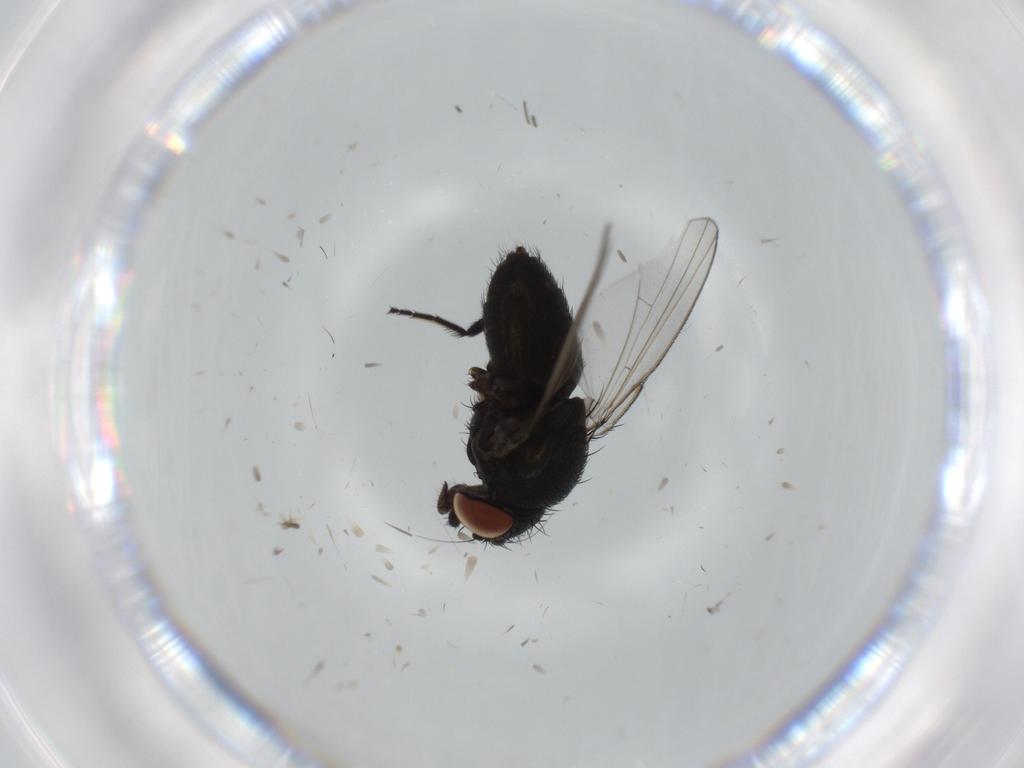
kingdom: Animalia
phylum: Arthropoda
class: Insecta
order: Diptera
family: Milichiidae
